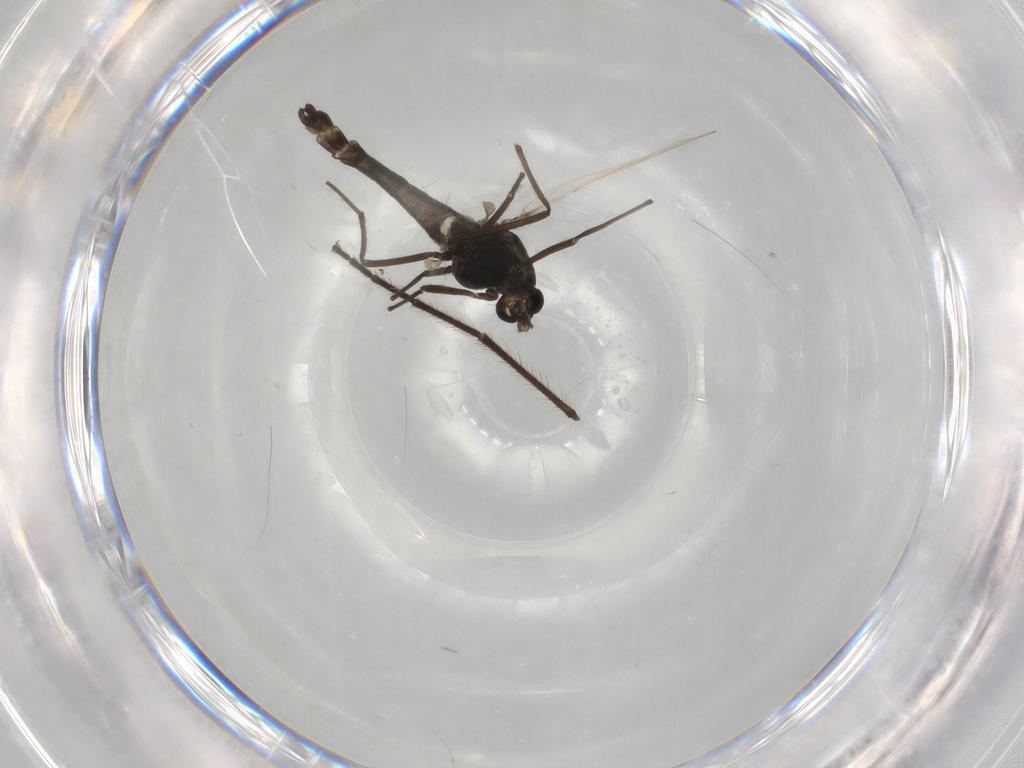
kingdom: Animalia
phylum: Arthropoda
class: Insecta
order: Diptera
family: Chironomidae
